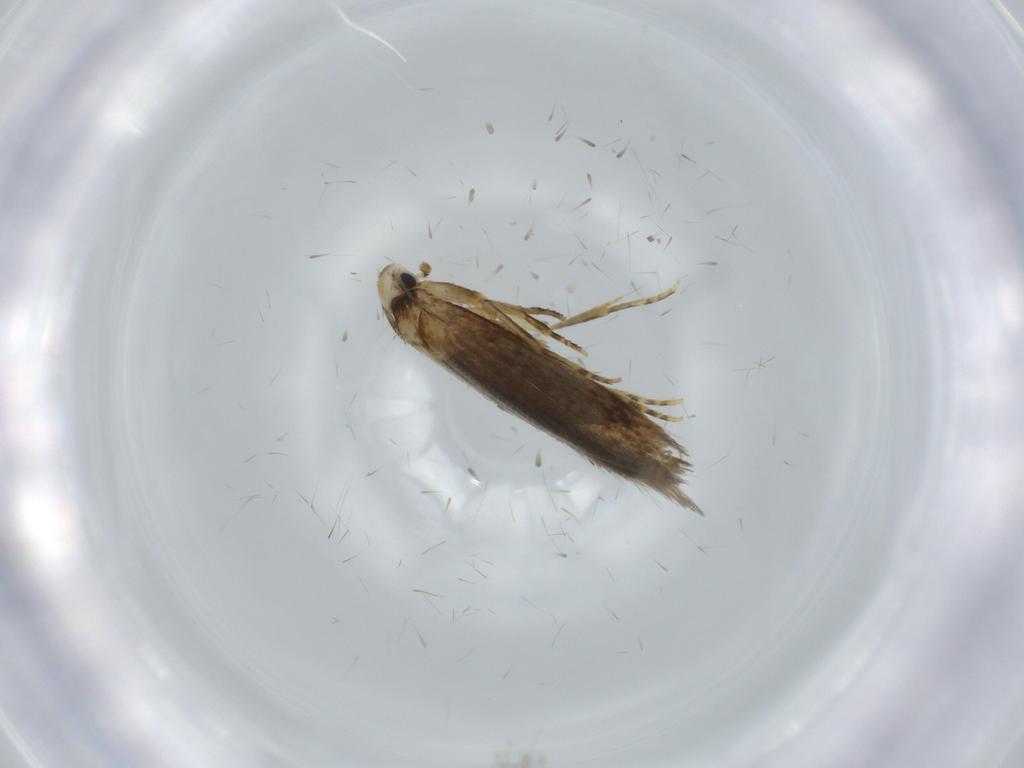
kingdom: Animalia
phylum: Arthropoda
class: Insecta
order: Lepidoptera
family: Tineidae
